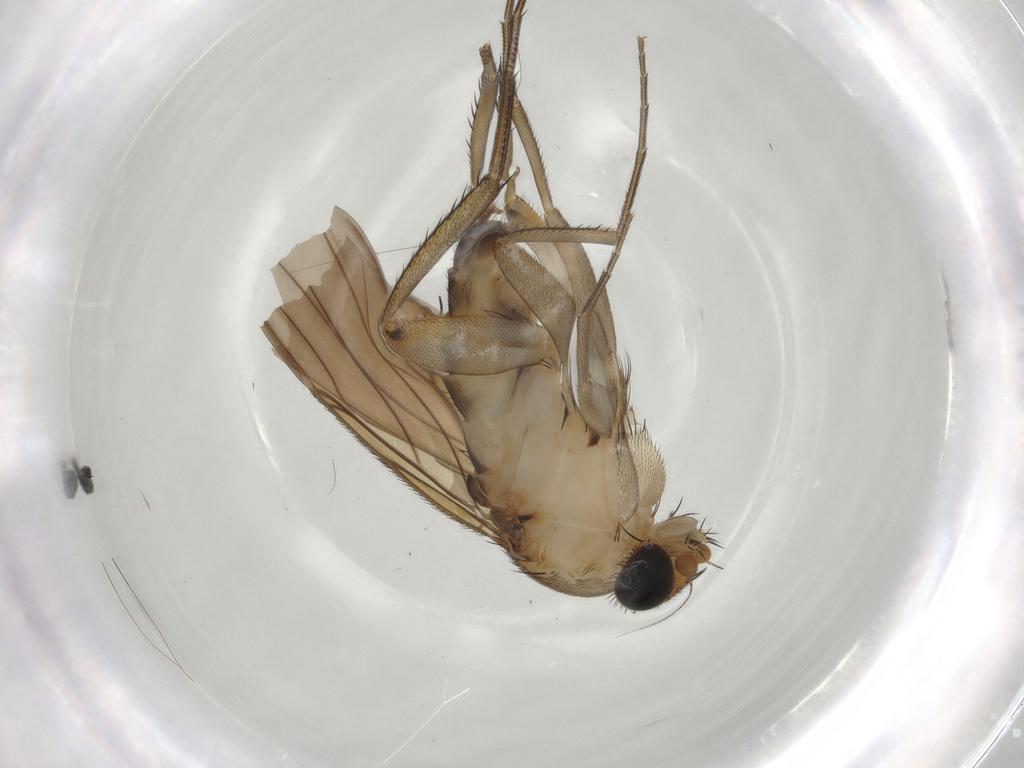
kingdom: Animalia
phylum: Arthropoda
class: Insecta
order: Diptera
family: Phoridae
